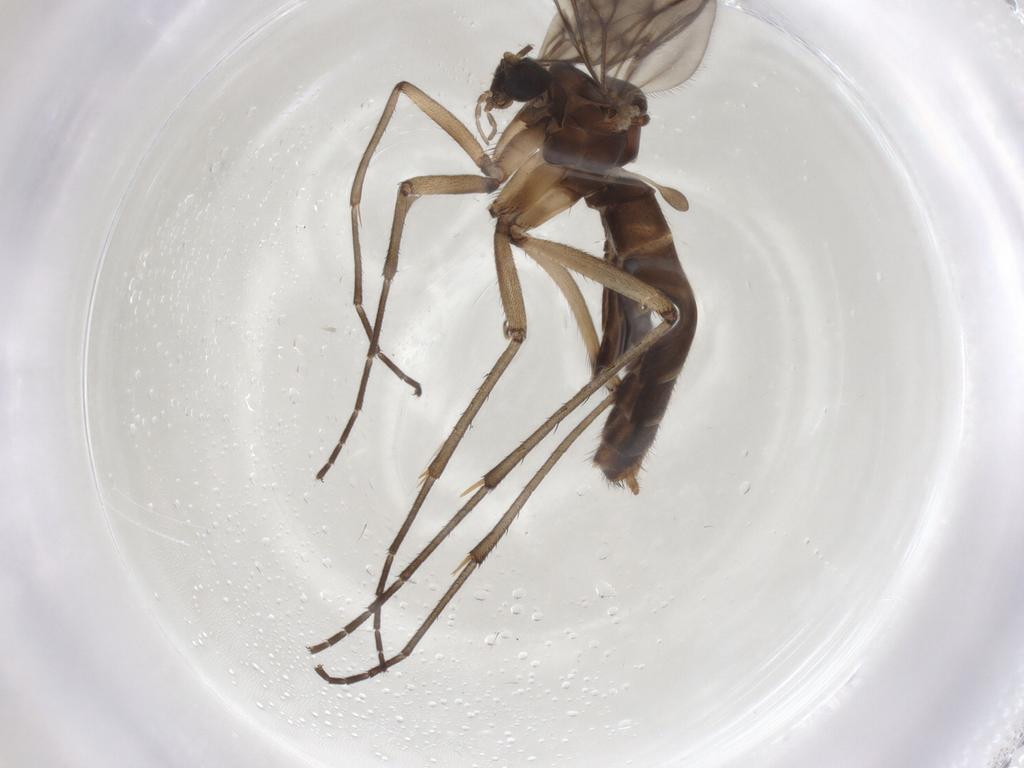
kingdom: Animalia
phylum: Arthropoda
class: Insecta
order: Diptera
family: Mycetophilidae
